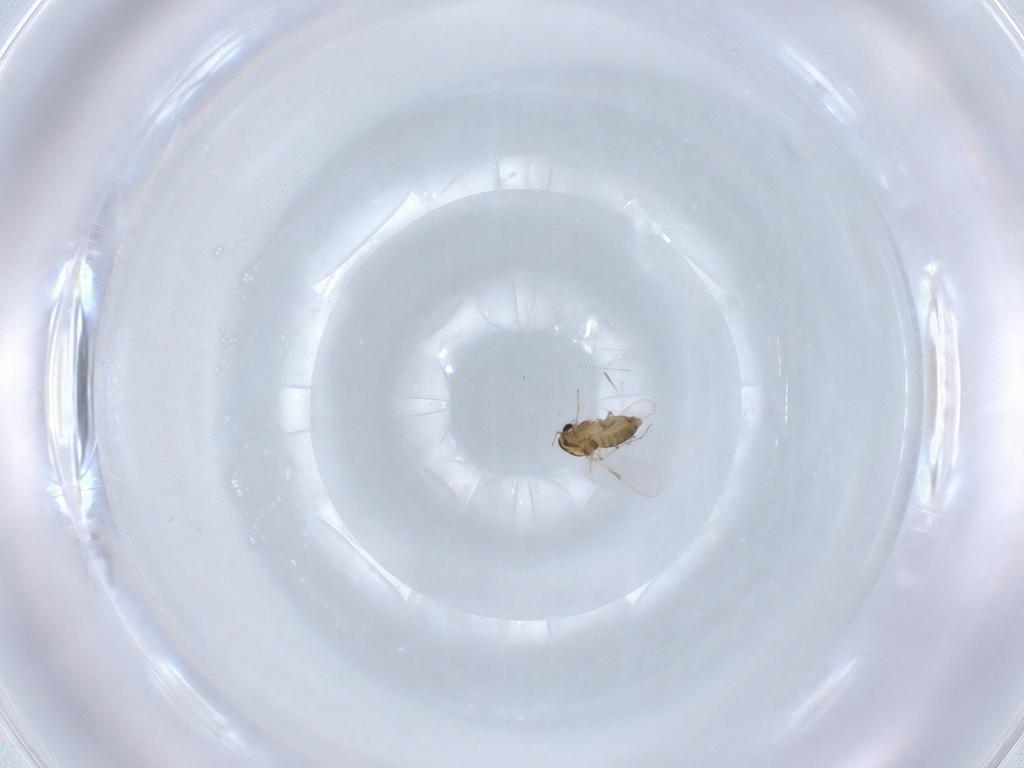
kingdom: Animalia
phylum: Arthropoda
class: Insecta
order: Diptera
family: Chironomidae
